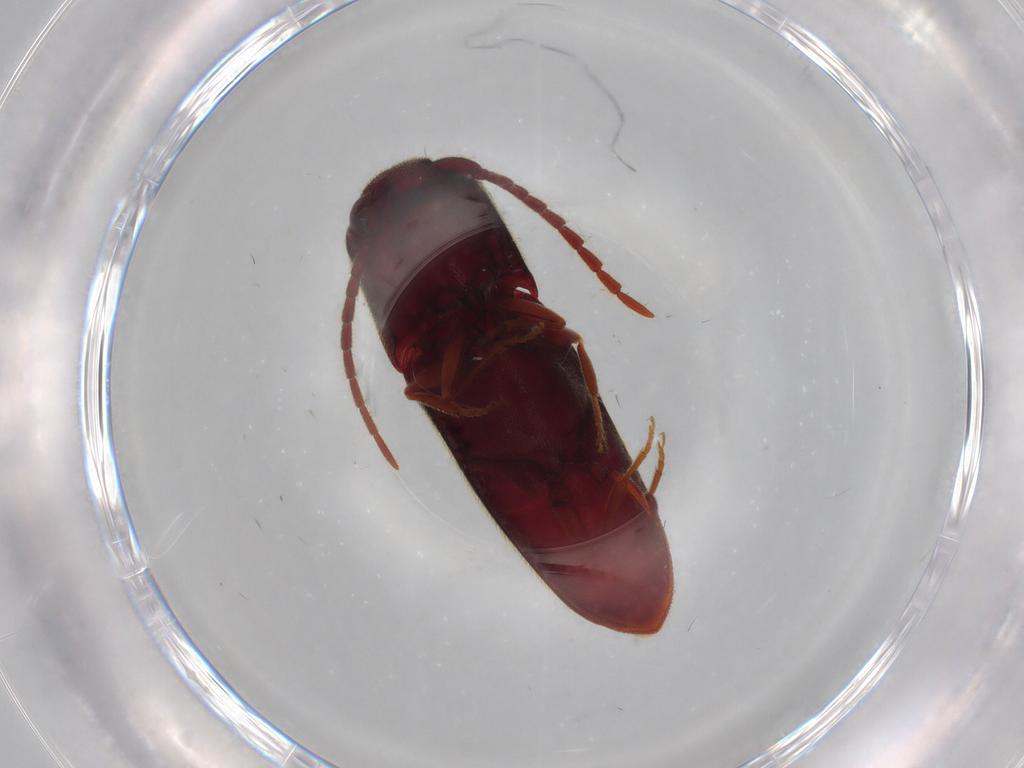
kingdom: Animalia
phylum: Arthropoda
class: Insecta
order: Coleoptera
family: Eucnemidae
